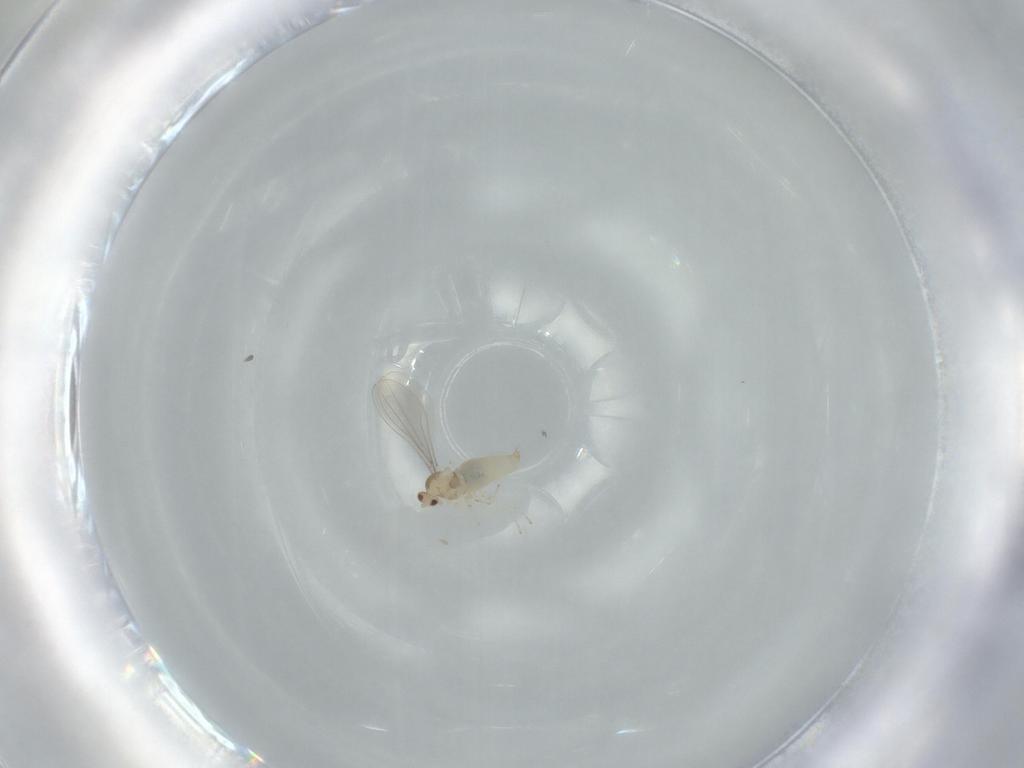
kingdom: Animalia
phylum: Arthropoda
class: Insecta
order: Diptera
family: Cecidomyiidae
